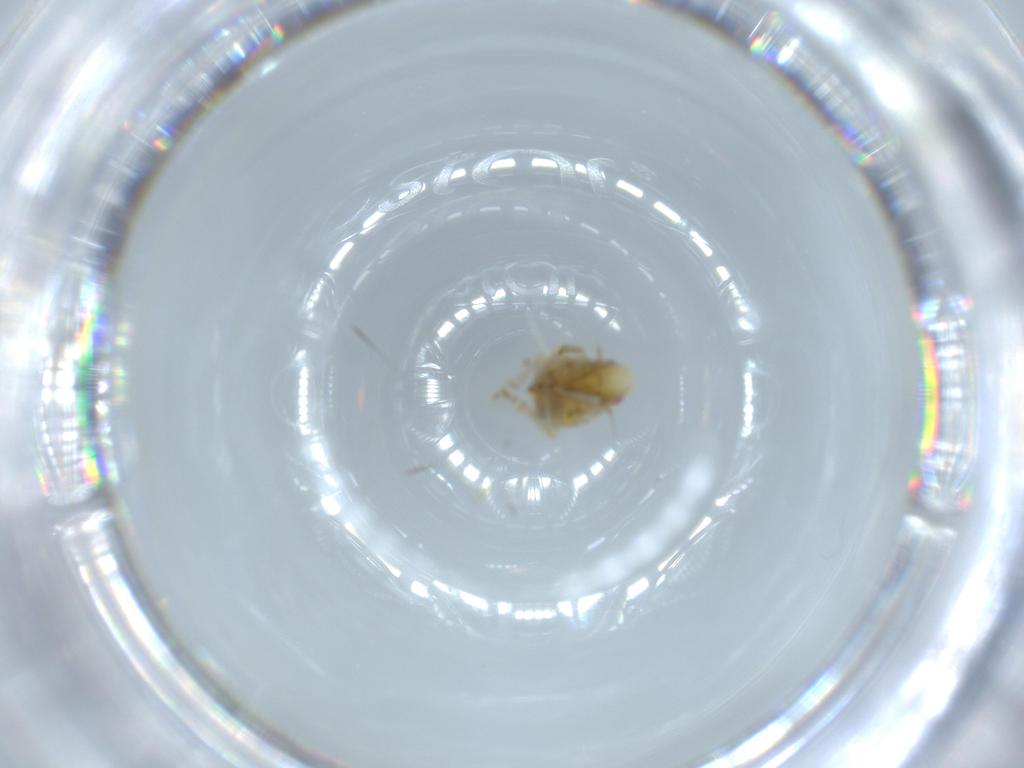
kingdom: Animalia
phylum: Arthropoda
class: Insecta
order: Hemiptera
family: Flatidae
